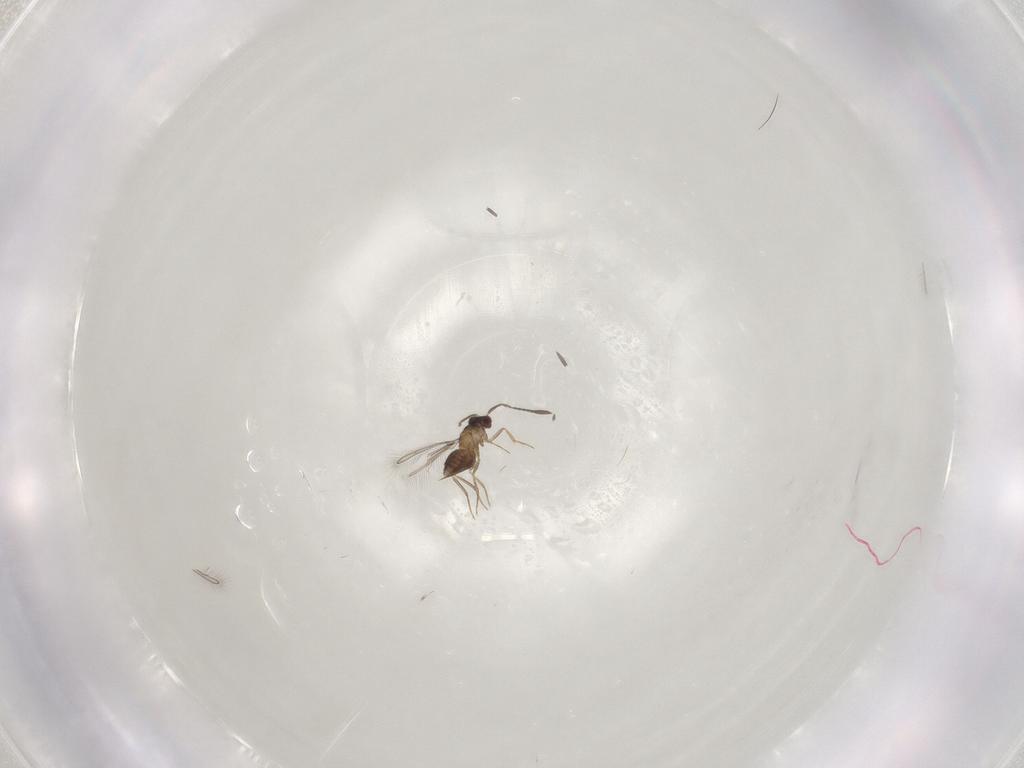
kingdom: Animalia
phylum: Arthropoda
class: Insecta
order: Hymenoptera
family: Mymaridae
